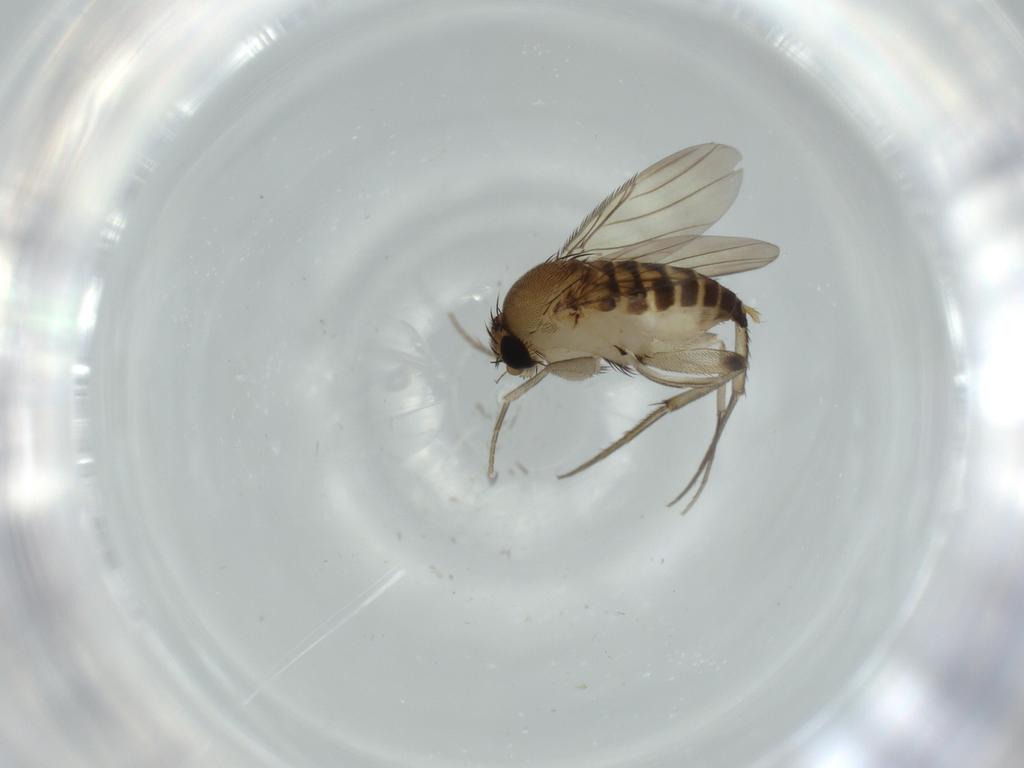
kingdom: Animalia
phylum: Arthropoda
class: Insecta
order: Diptera
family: Phoridae
